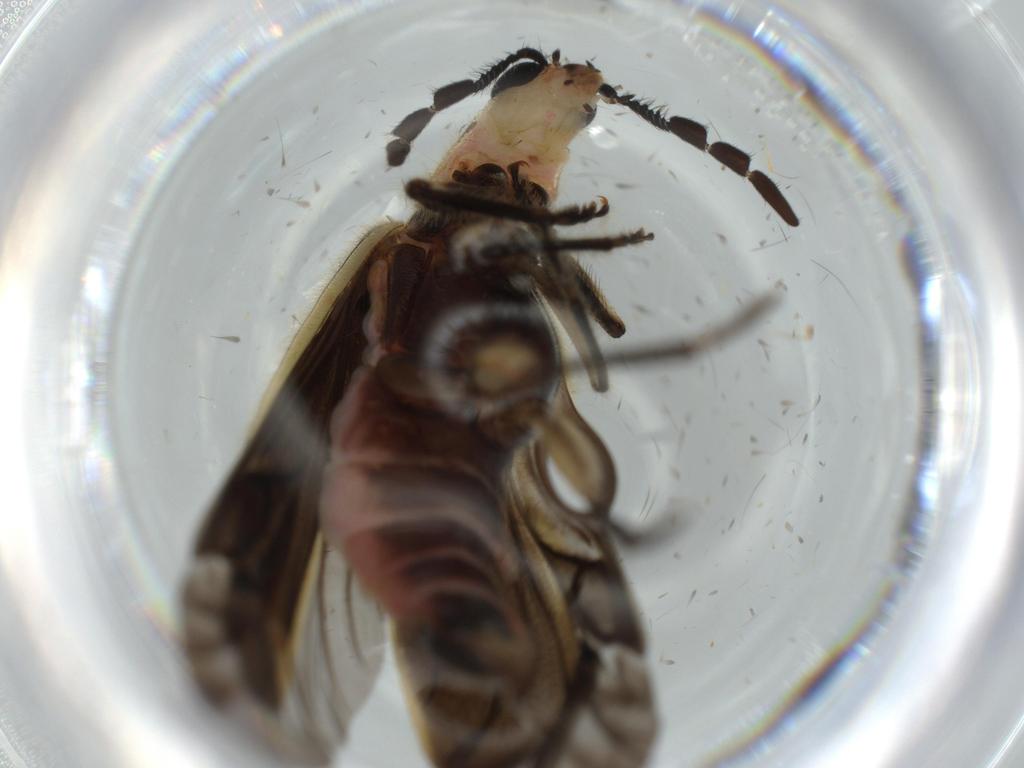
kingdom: Animalia
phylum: Arthropoda
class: Insecta
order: Coleoptera
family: Cleridae
